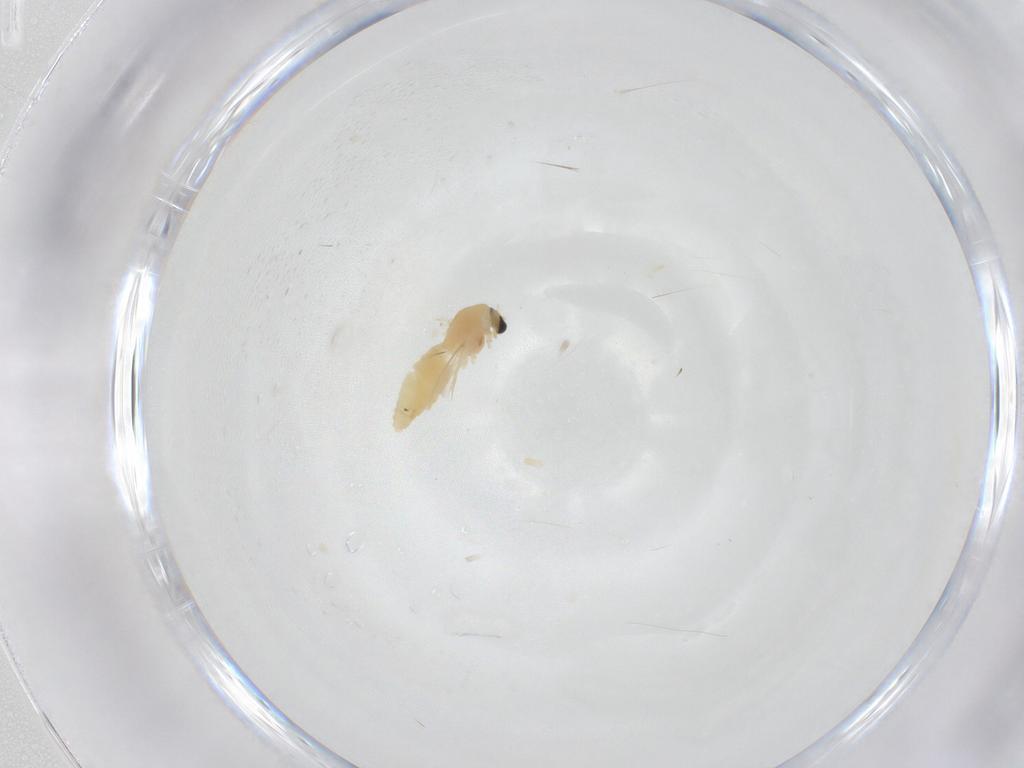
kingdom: Animalia
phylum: Arthropoda
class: Insecta
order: Diptera
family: Chironomidae
